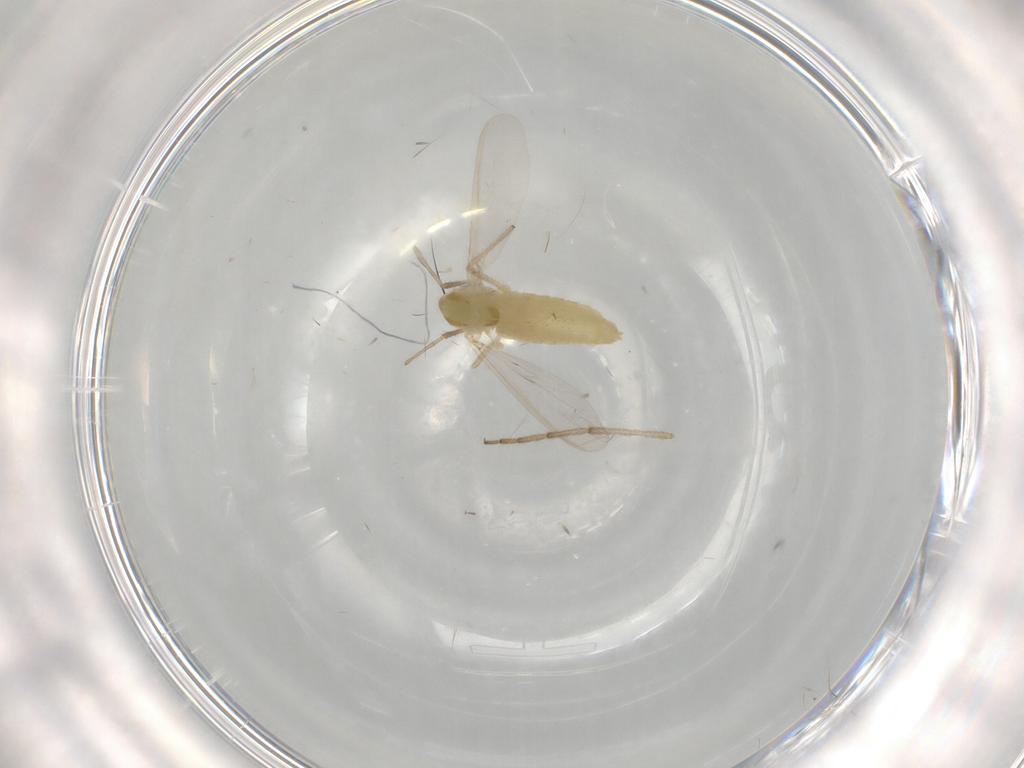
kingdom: Animalia
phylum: Arthropoda
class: Insecta
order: Diptera
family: Chironomidae
